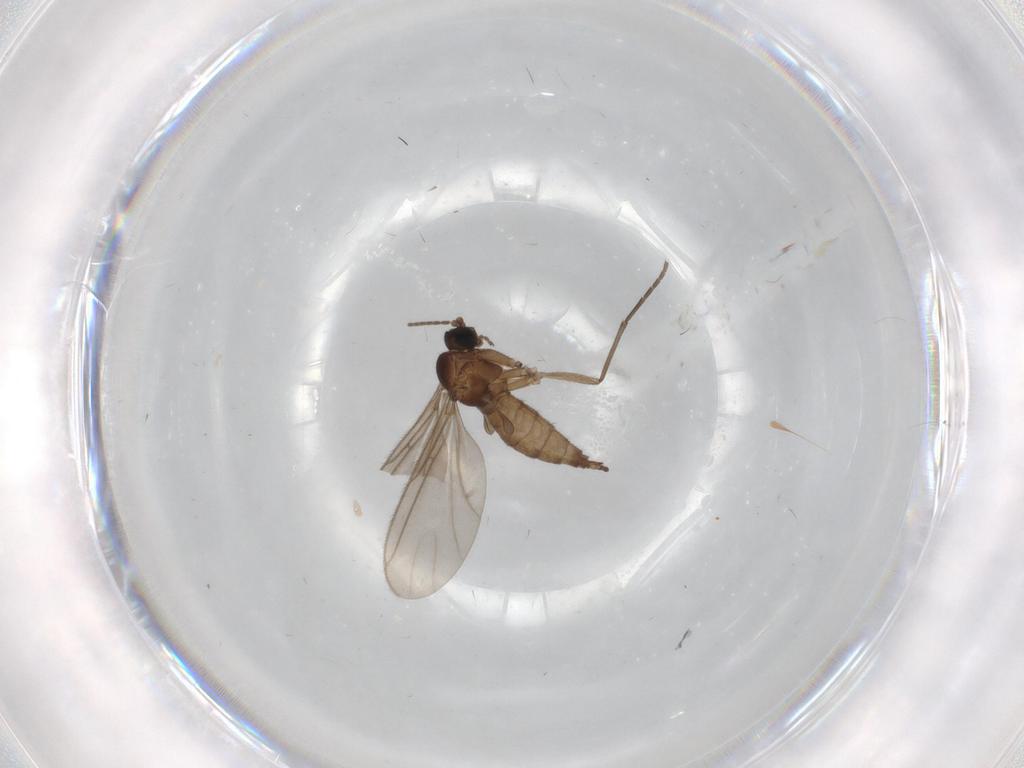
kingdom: Animalia
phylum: Arthropoda
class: Insecta
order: Diptera
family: Sciaridae
